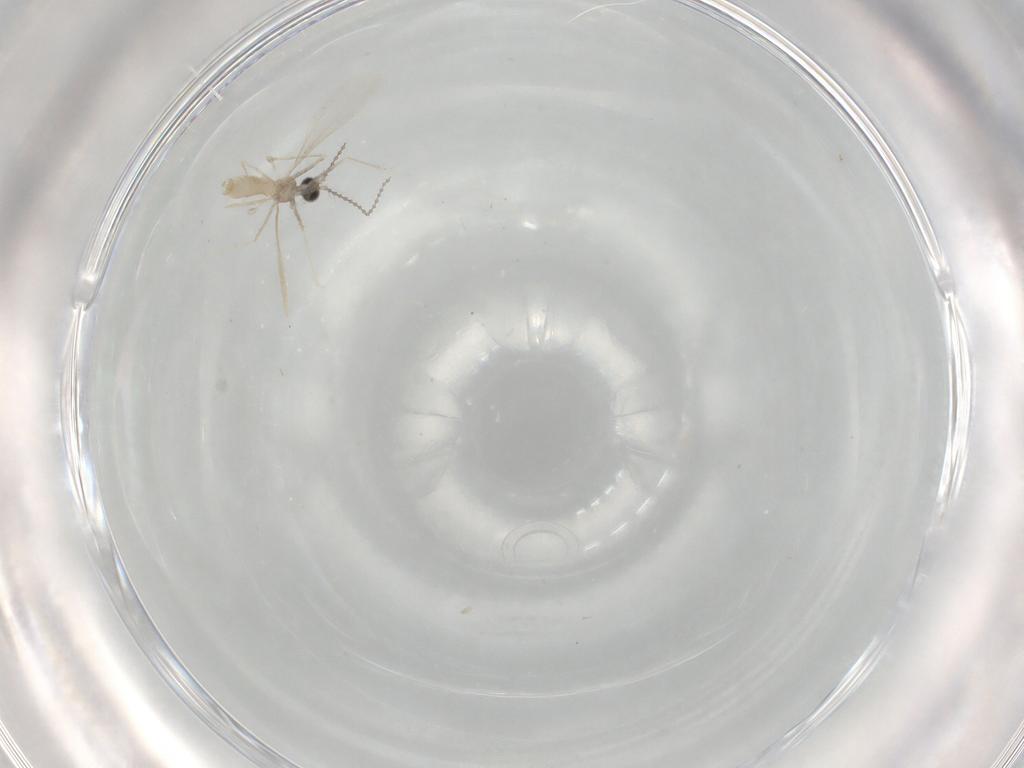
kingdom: Animalia
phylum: Arthropoda
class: Insecta
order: Diptera
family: Cecidomyiidae
